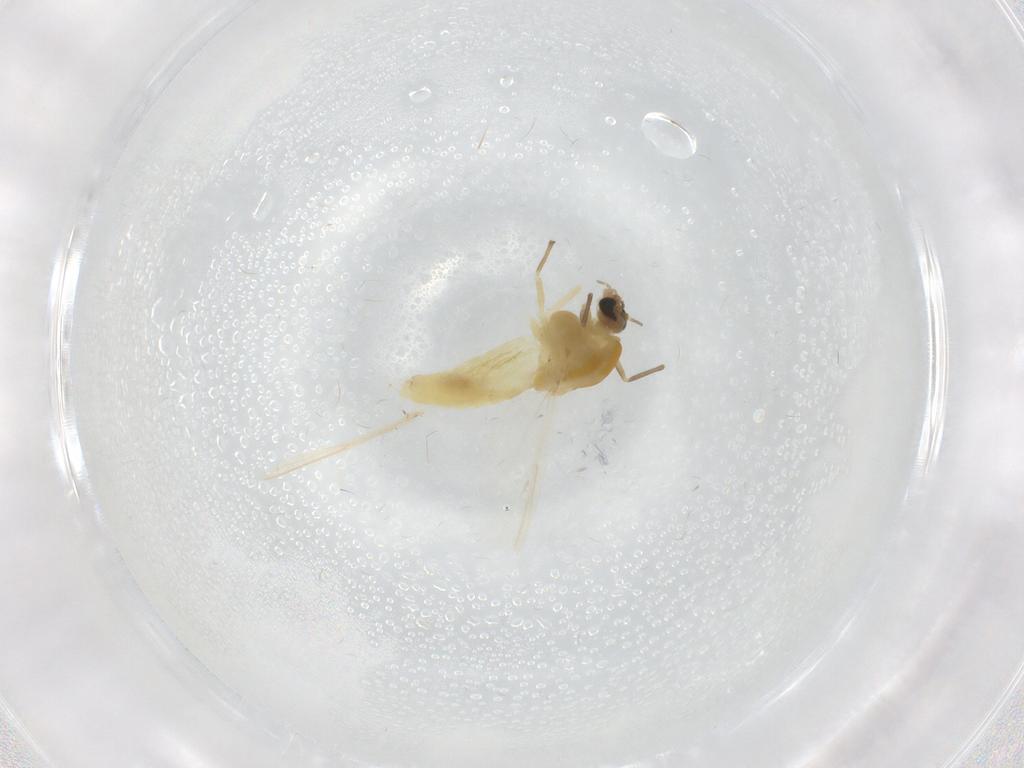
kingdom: Animalia
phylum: Arthropoda
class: Insecta
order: Diptera
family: Chironomidae
